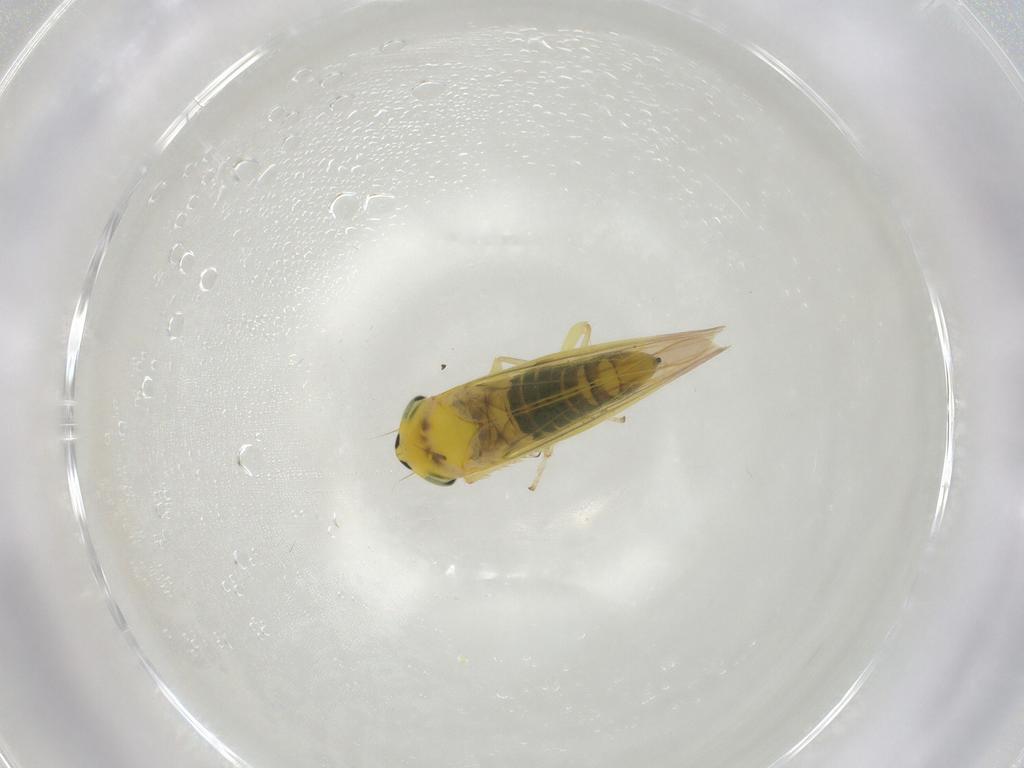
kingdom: Animalia
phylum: Arthropoda
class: Insecta
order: Hemiptera
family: Cicadellidae
